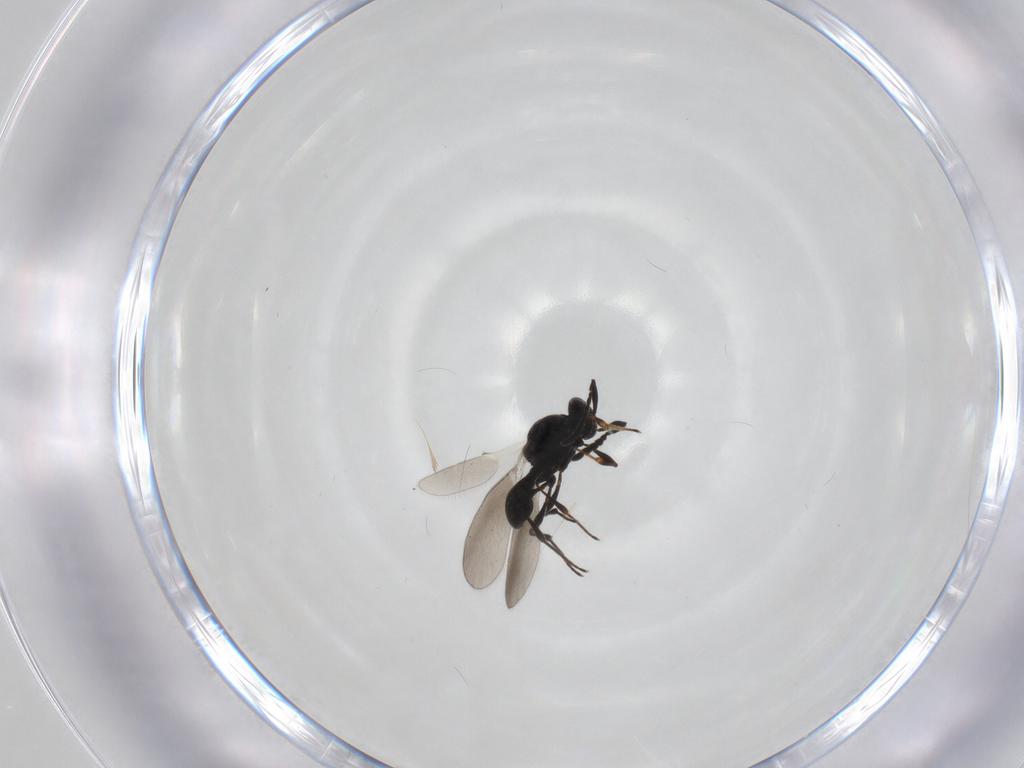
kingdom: Animalia
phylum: Arthropoda
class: Insecta
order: Hymenoptera
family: Platygastridae
